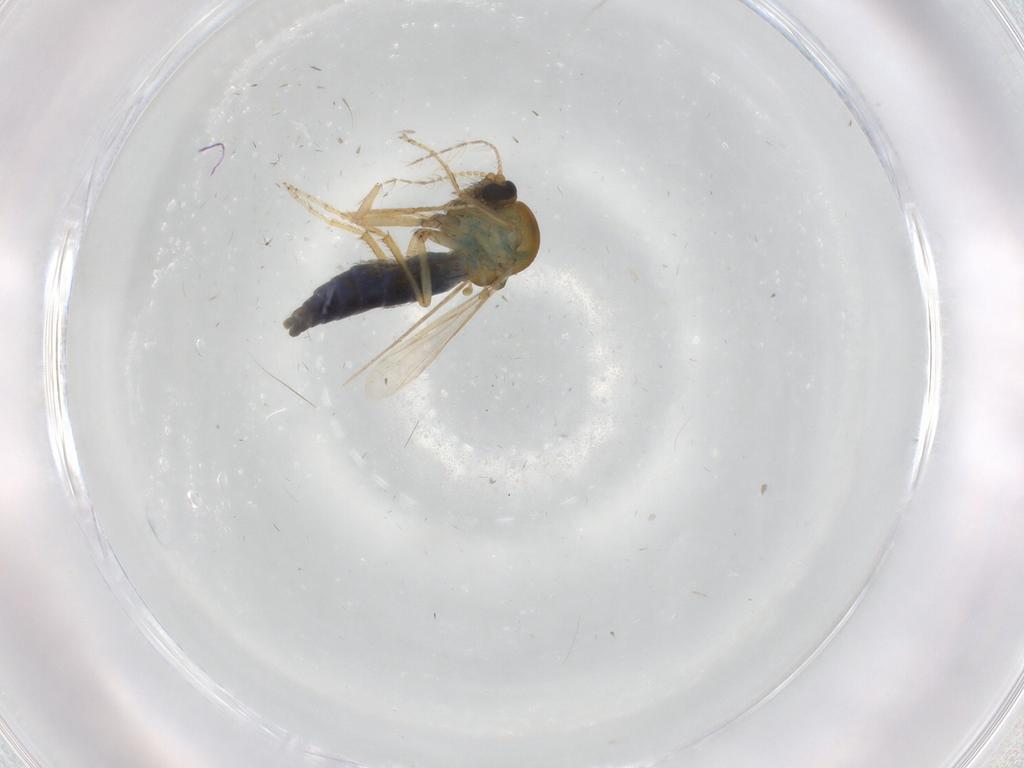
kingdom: Animalia
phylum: Arthropoda
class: Insecta
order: Diptera
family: Ceratopogonidae
